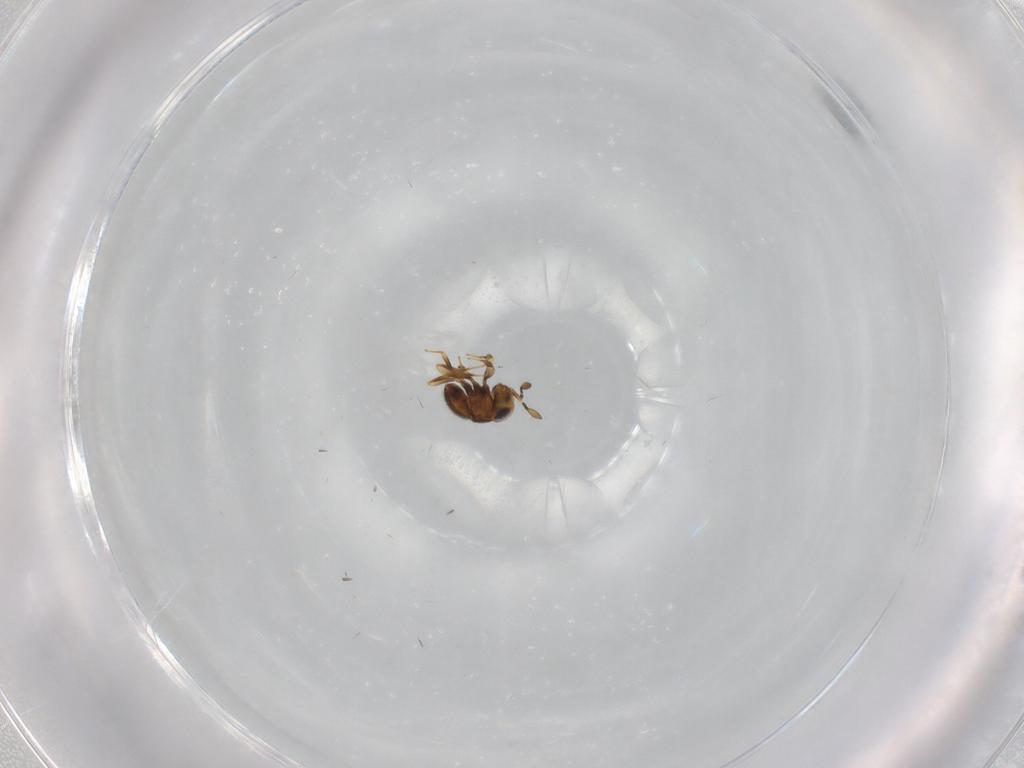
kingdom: Animalia
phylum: Arthropoda
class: Insecta
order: Hymenoptera
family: Scelionidae
